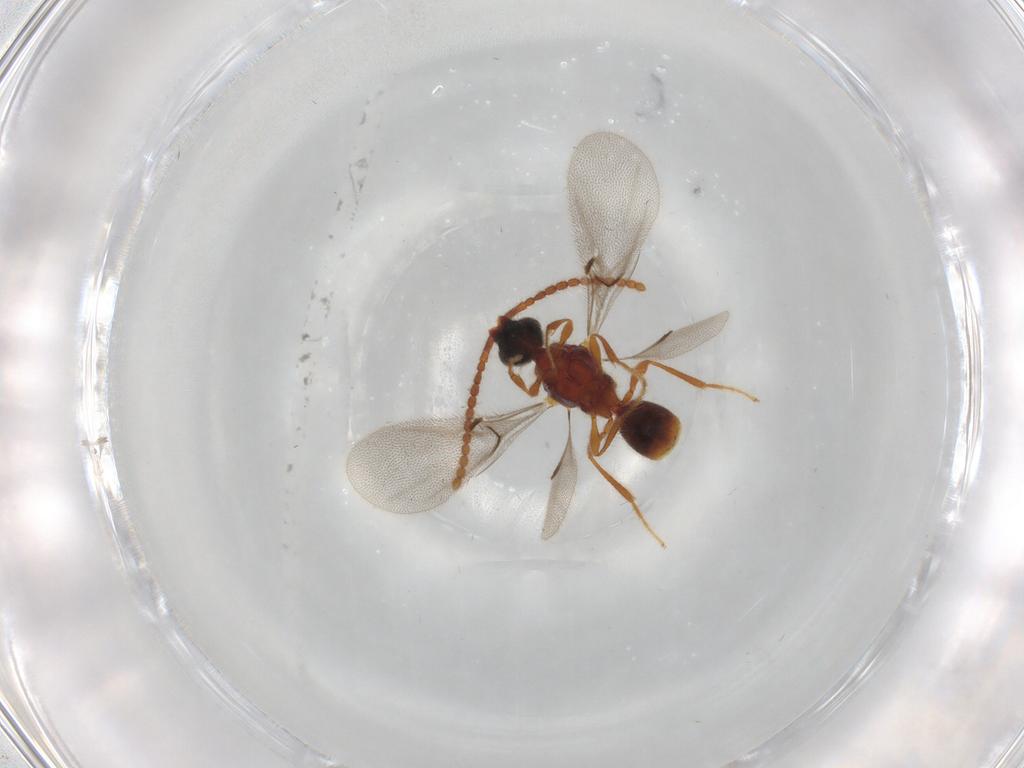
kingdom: Animalia
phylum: Arthropoda
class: Insecta
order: Hymenoptera
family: Diapriidae
